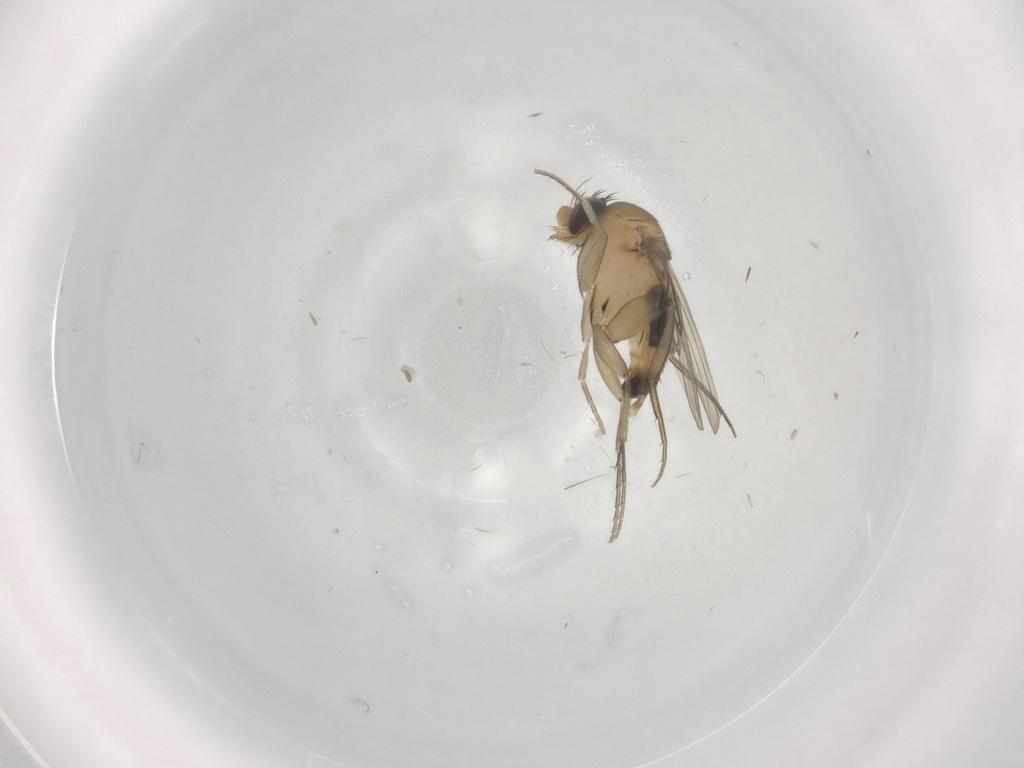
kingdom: Animalia
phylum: Arthropoda
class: Insecta
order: Diptera
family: Phoridae
